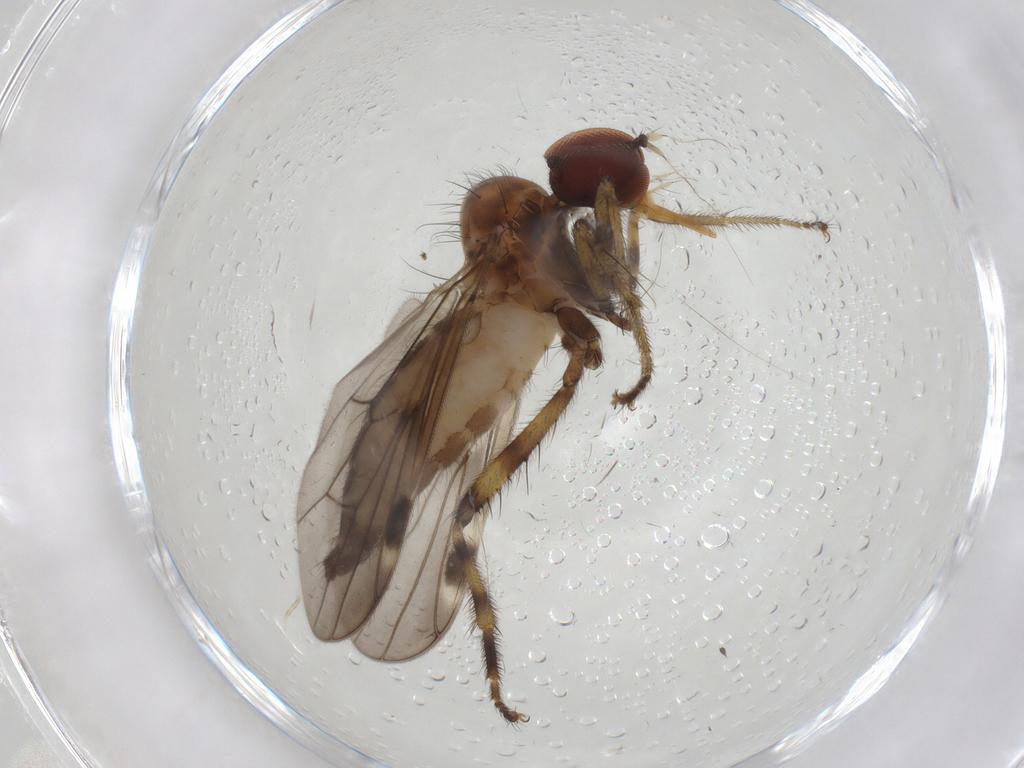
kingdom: Animalia
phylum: Arthropoda
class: Insecta
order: Diptera
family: Hybotidae
